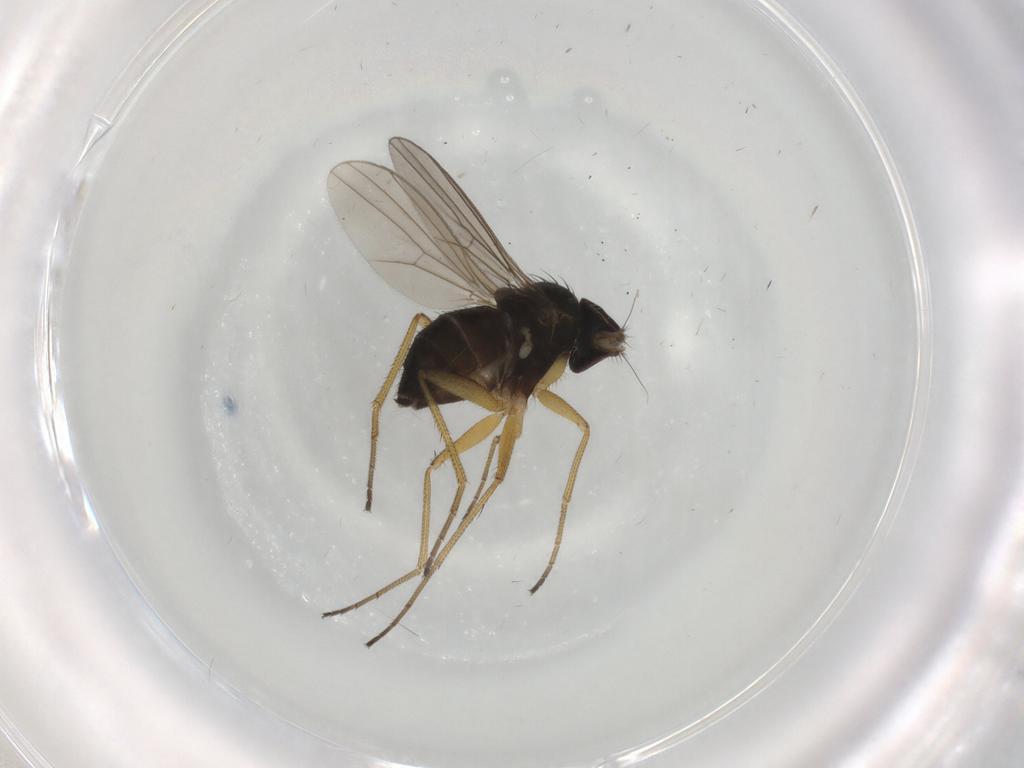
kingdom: Animalia
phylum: Arthropoda
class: Insecta
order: Diptera
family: Dolichopodidae
